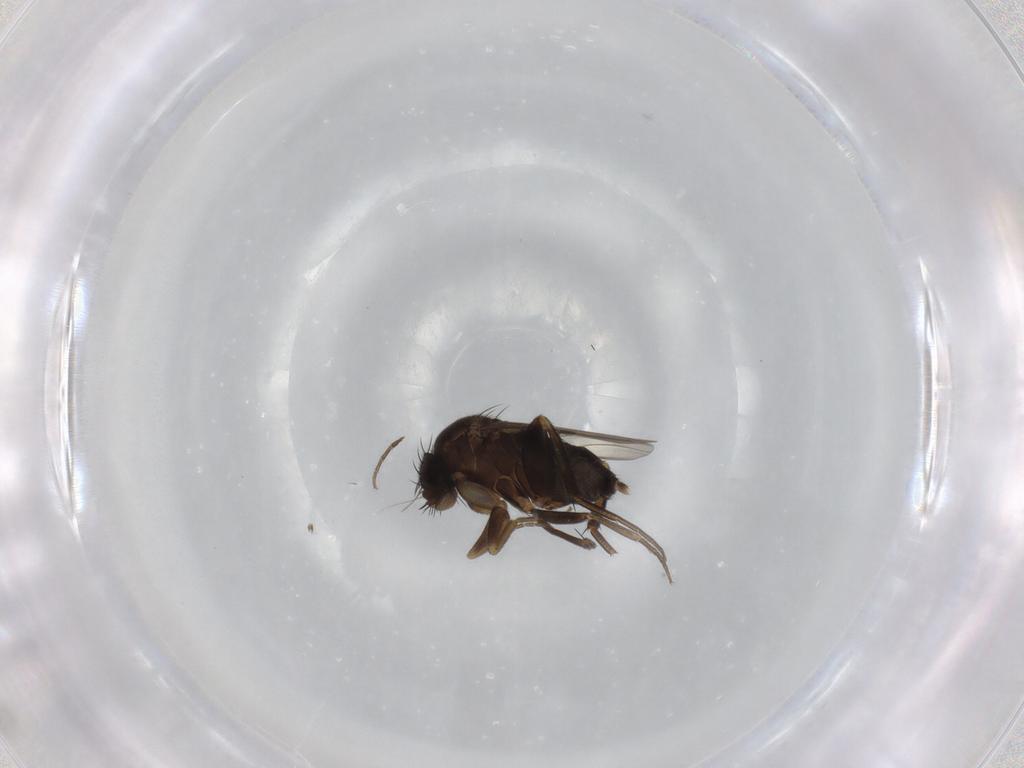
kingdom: Animalia
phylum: Arthropoda
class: Insecta
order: Diptera
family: Phoridae
